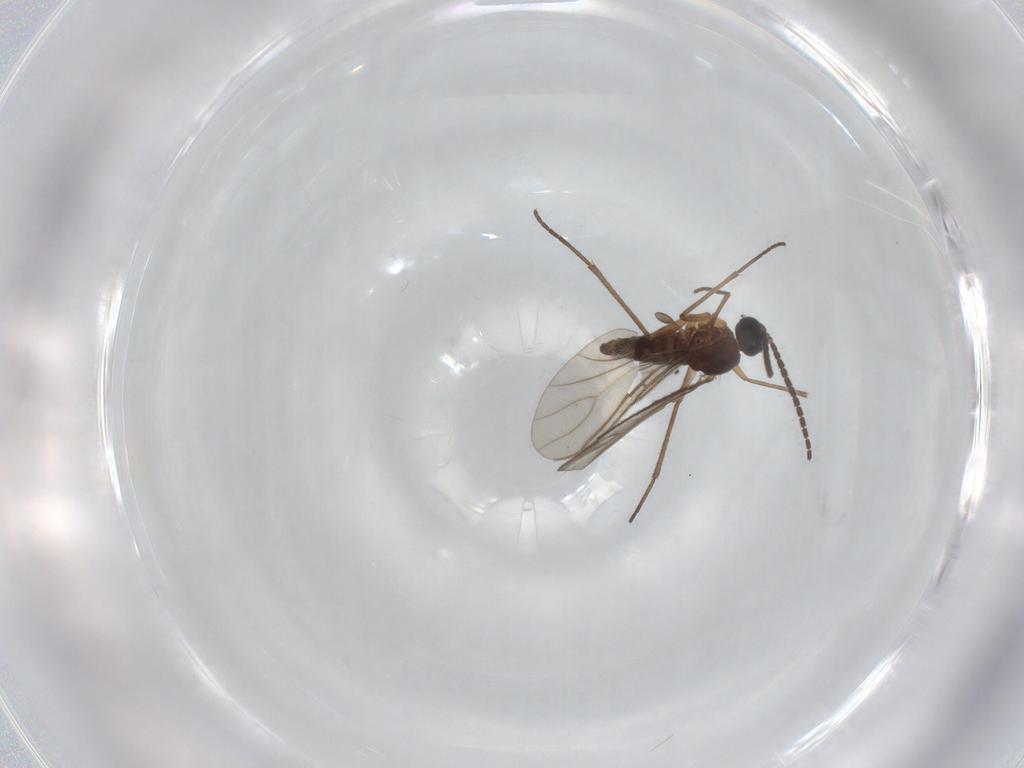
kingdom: Animalia
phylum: Arthropoda
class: Insecta
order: Diptera
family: Sciaridae
